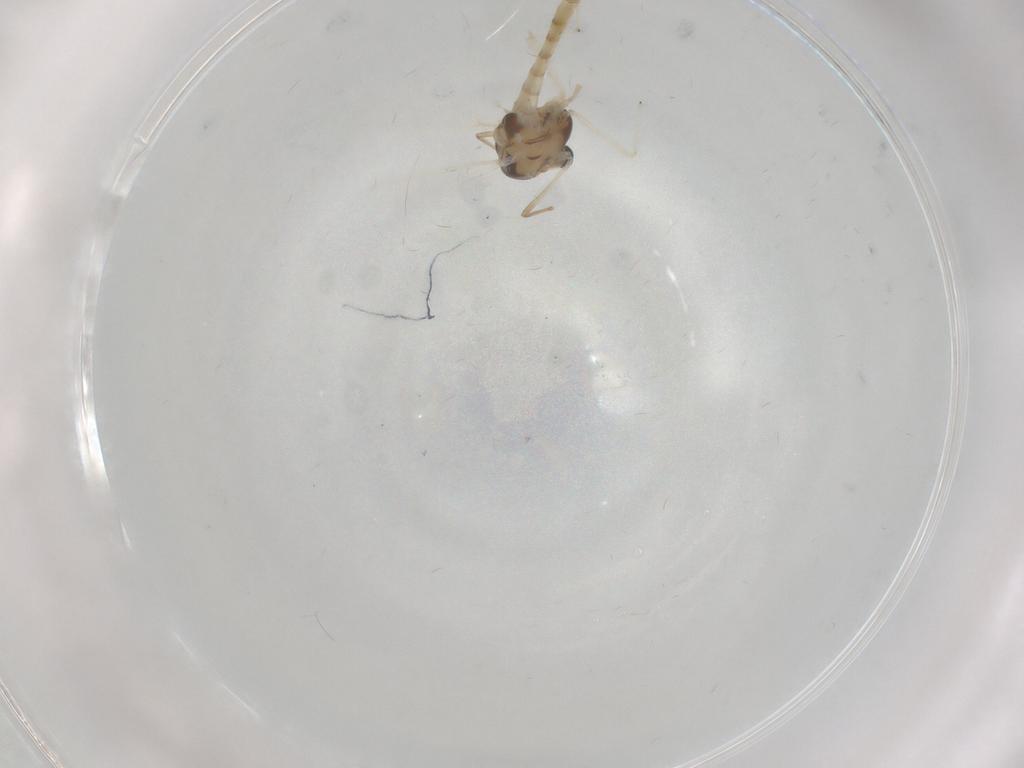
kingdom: Animalia
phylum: Arthropoda
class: Insecta
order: Diptera
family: Chironomidae
